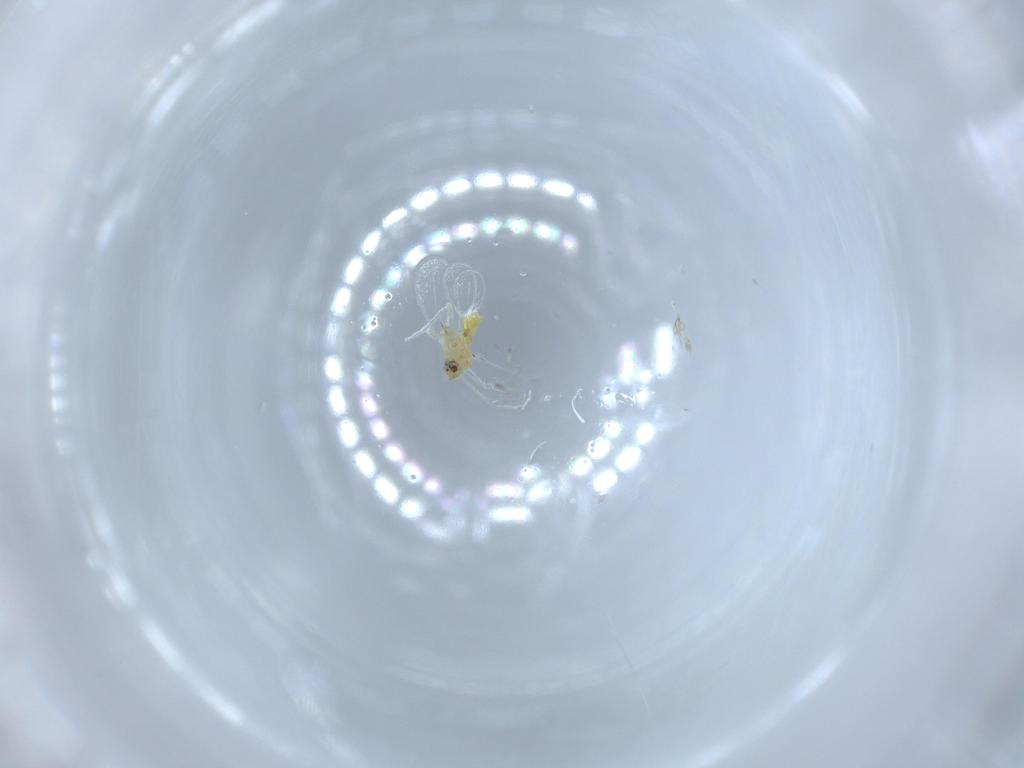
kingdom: Animalia
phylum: Arthropoda
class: Insecta
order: Hemiptera
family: Aleyrodidae
